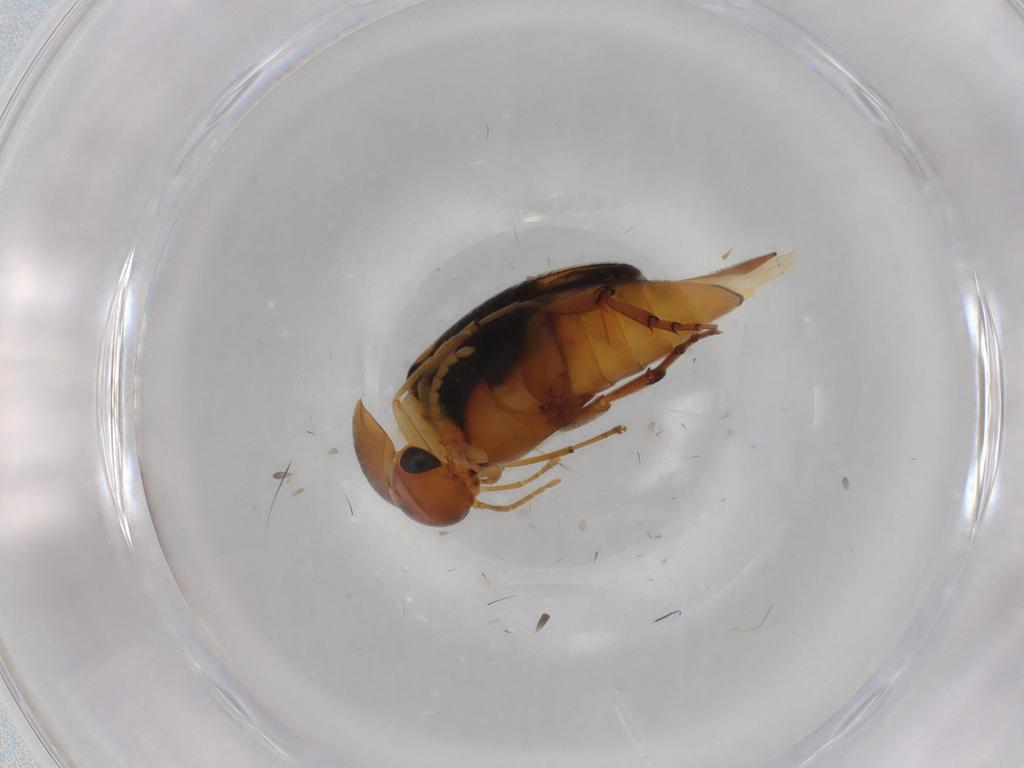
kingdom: Animalia
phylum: Arthropoda
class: Insecta
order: Coleoptera
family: Mordellidae
